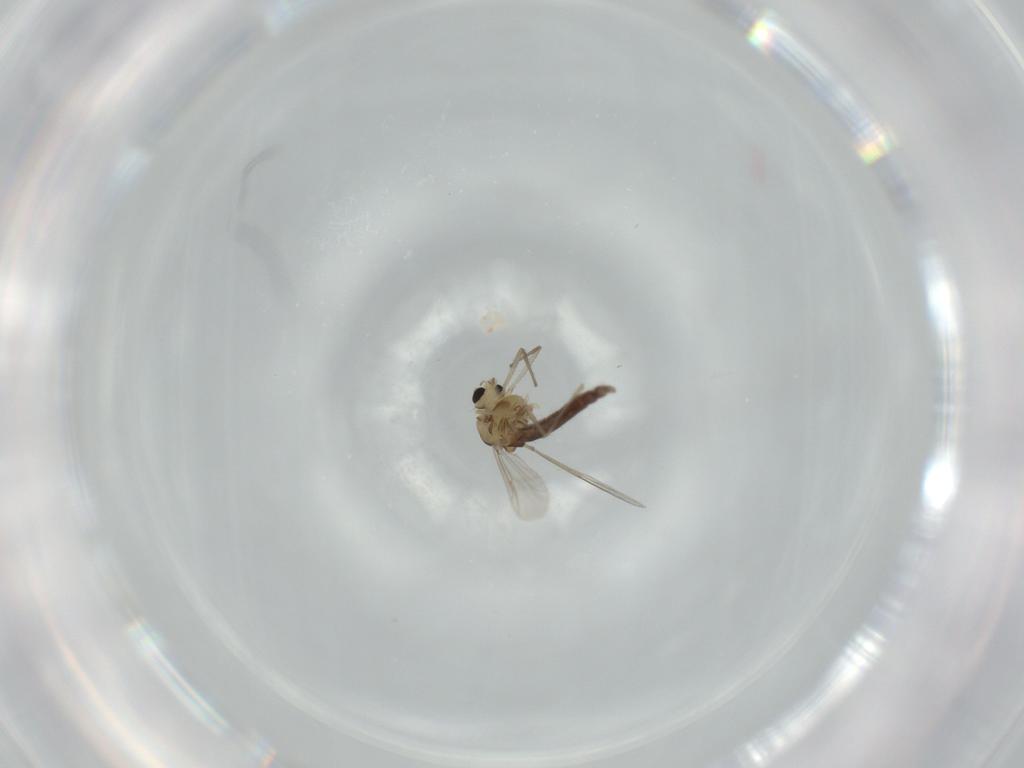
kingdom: Animalia
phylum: Arthropoda
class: Insecta
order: Diptera
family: Chironomidae
